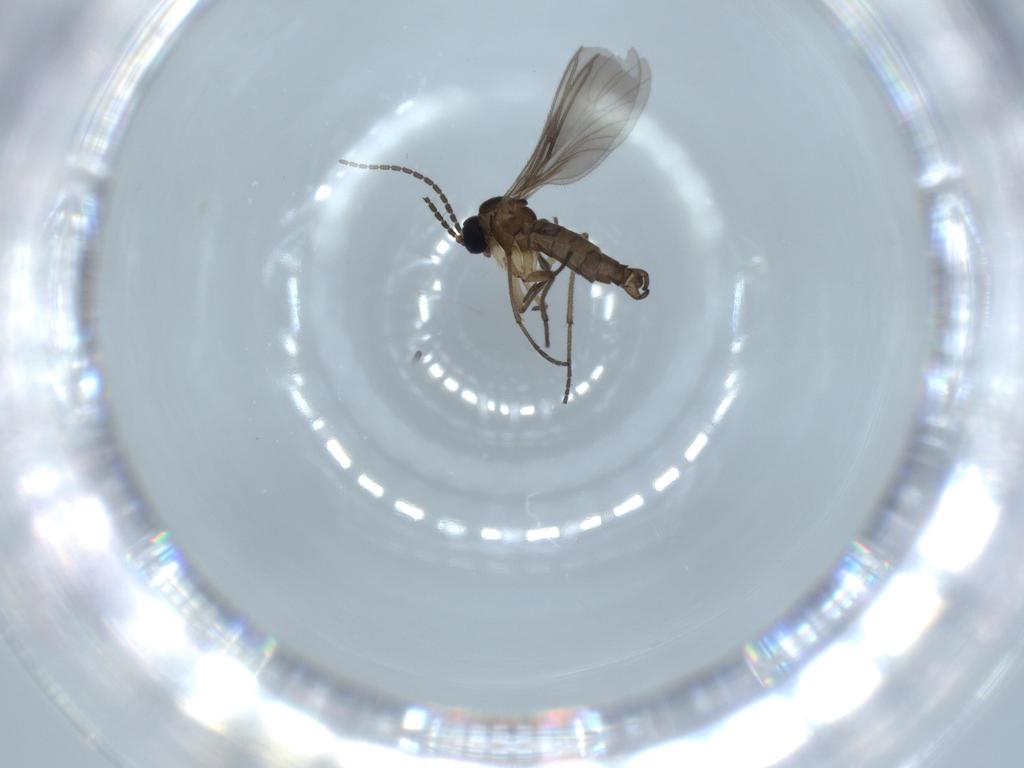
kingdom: Animalia
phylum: Arthropoda
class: Insecta
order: Diptera
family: Sciaridae
